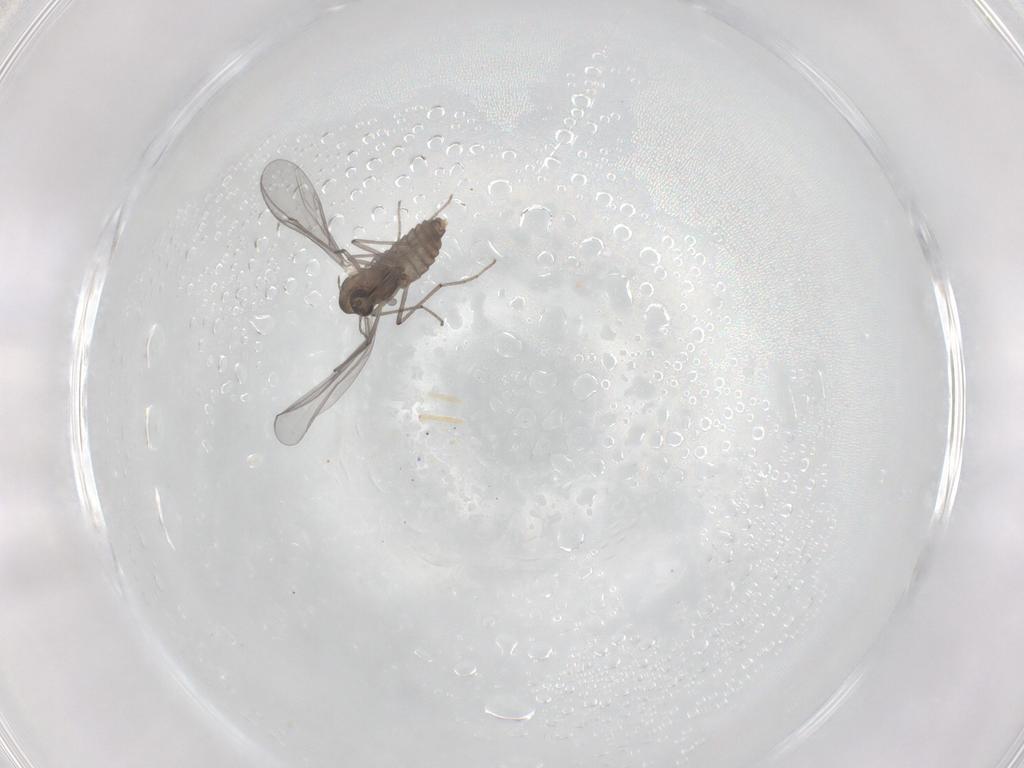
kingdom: Animalia
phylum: Arthropoda
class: Insecta
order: Diptera
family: Chironomidae
